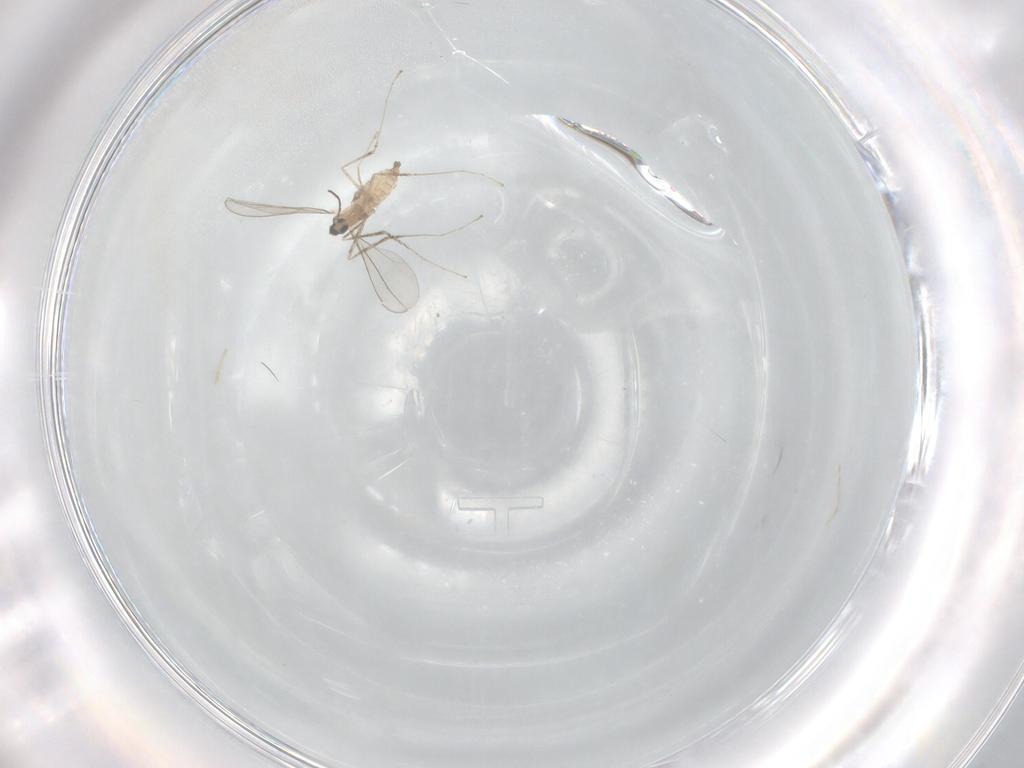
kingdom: Animalia
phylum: Arthropoda
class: Insecta
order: Diptera
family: Cecidomyiidae
